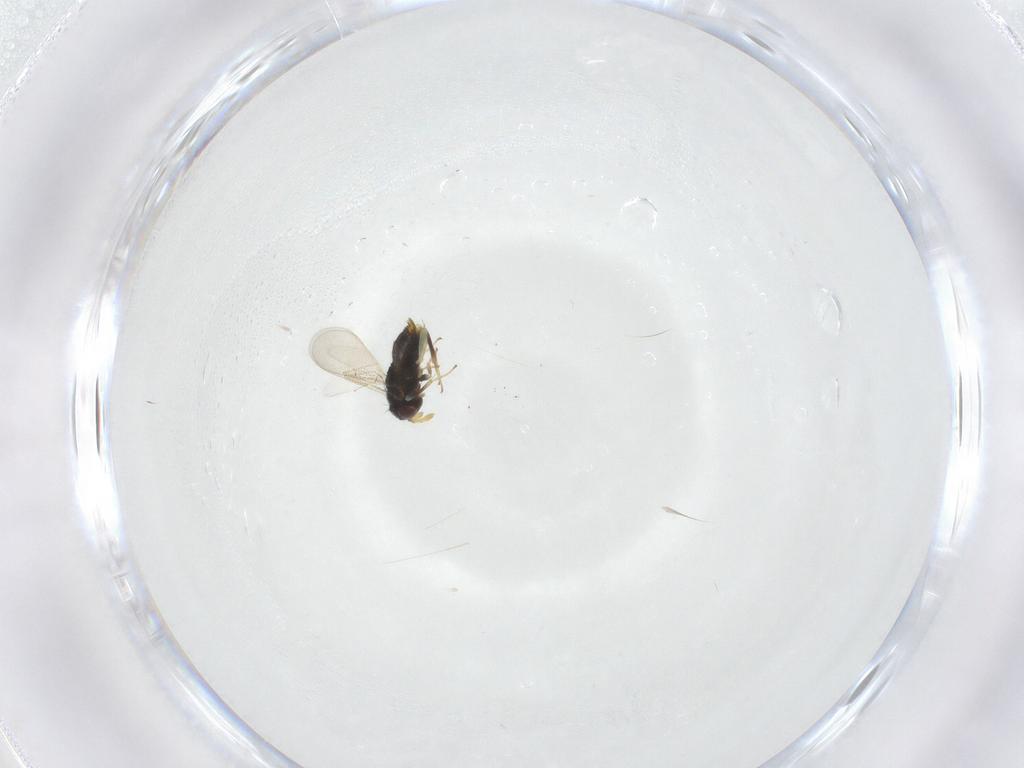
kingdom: Animalia
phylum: Arthropoda
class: Insecta
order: Hymenoptera
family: Aphelinidae
